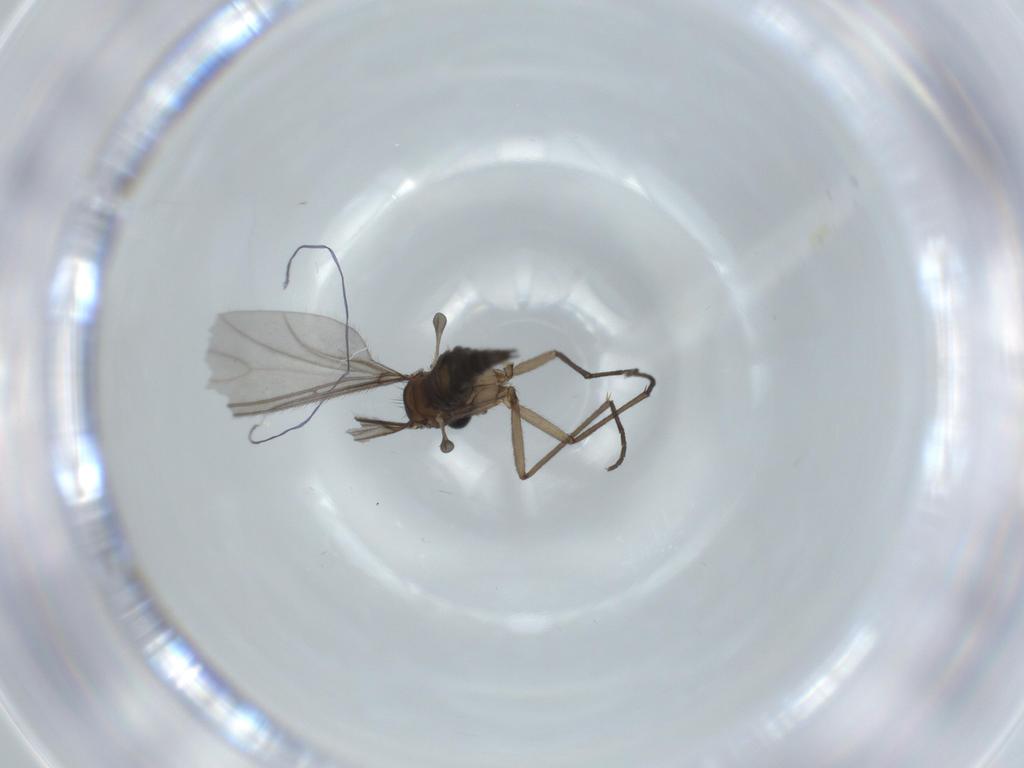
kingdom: Animalia
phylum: Arthropoda
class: Insecta
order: Diptera
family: Sciaridae
